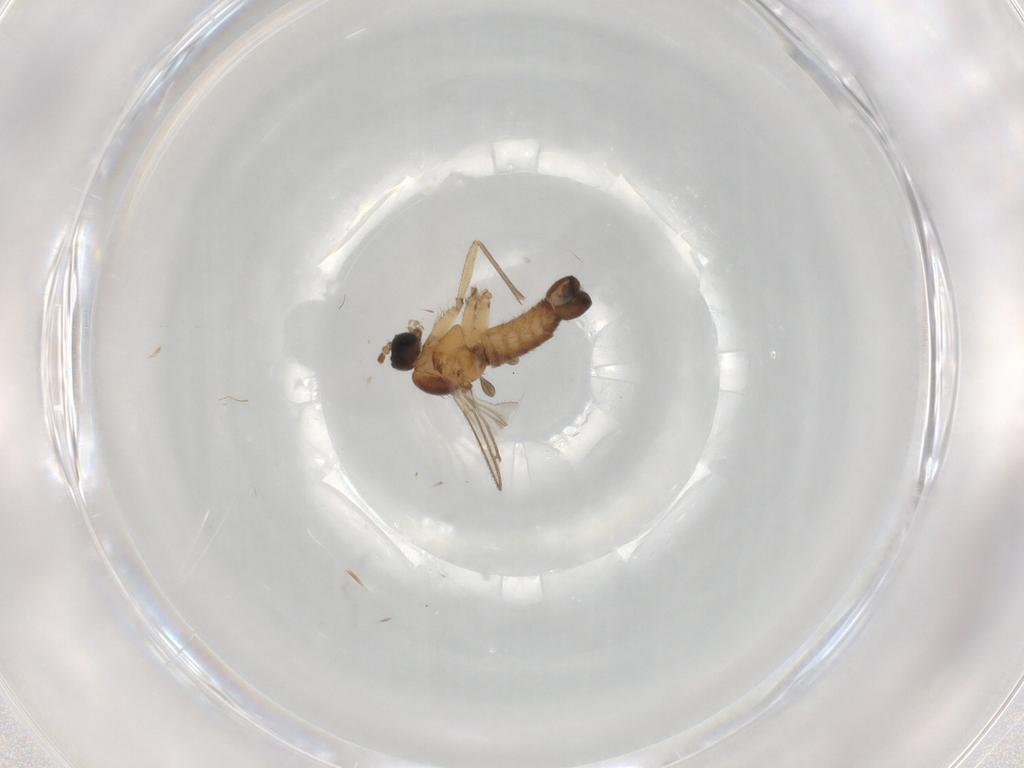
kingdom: Animalia
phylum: Arthropoda
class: Insecta
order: Diptera
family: Sciaridae
